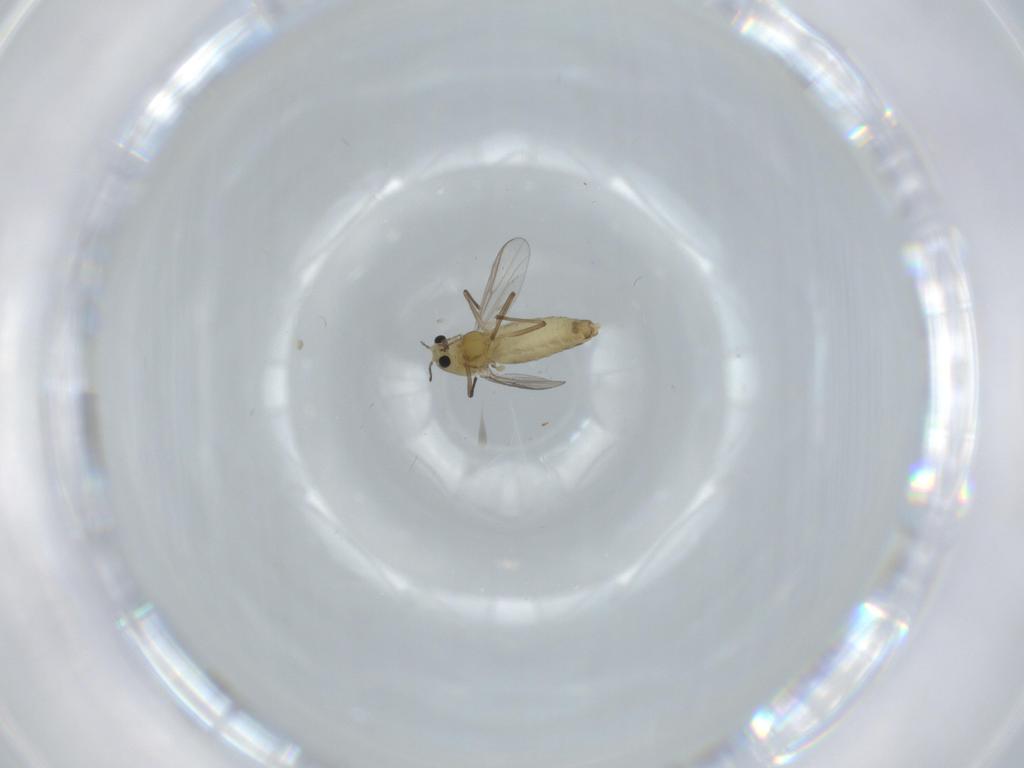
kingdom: Animalia
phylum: Arthropoda
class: Insecta
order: Diptera
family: Chironomidae
